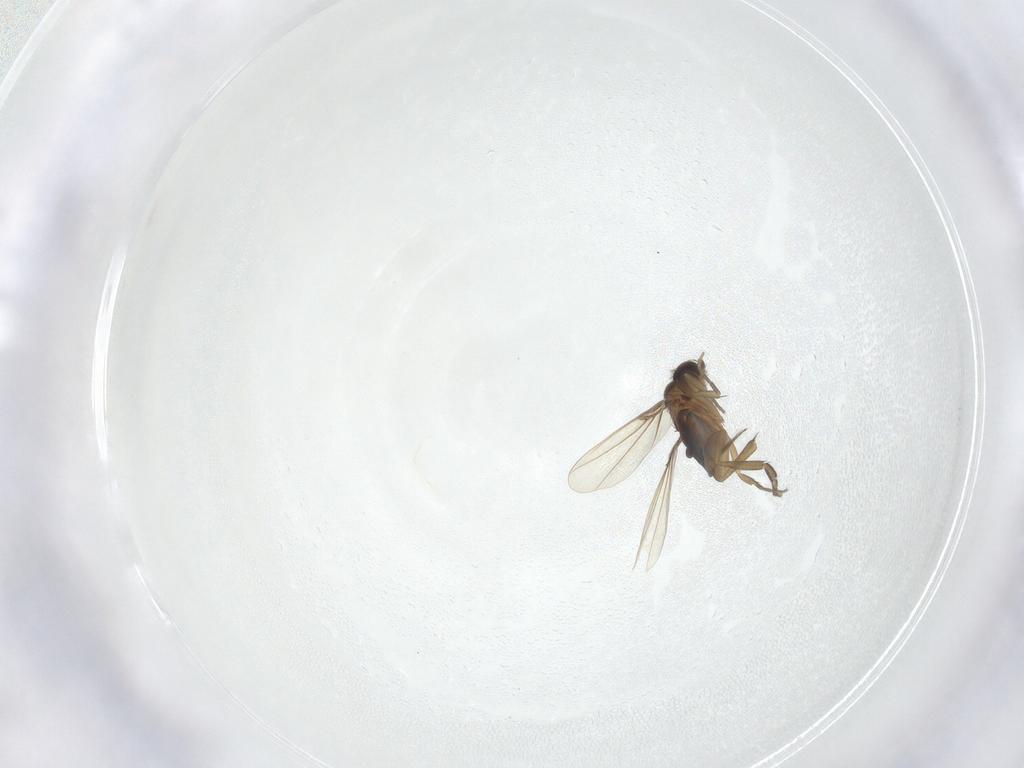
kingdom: Animalia
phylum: Arthropoda
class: Insecta
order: Diptera
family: Phoridae
